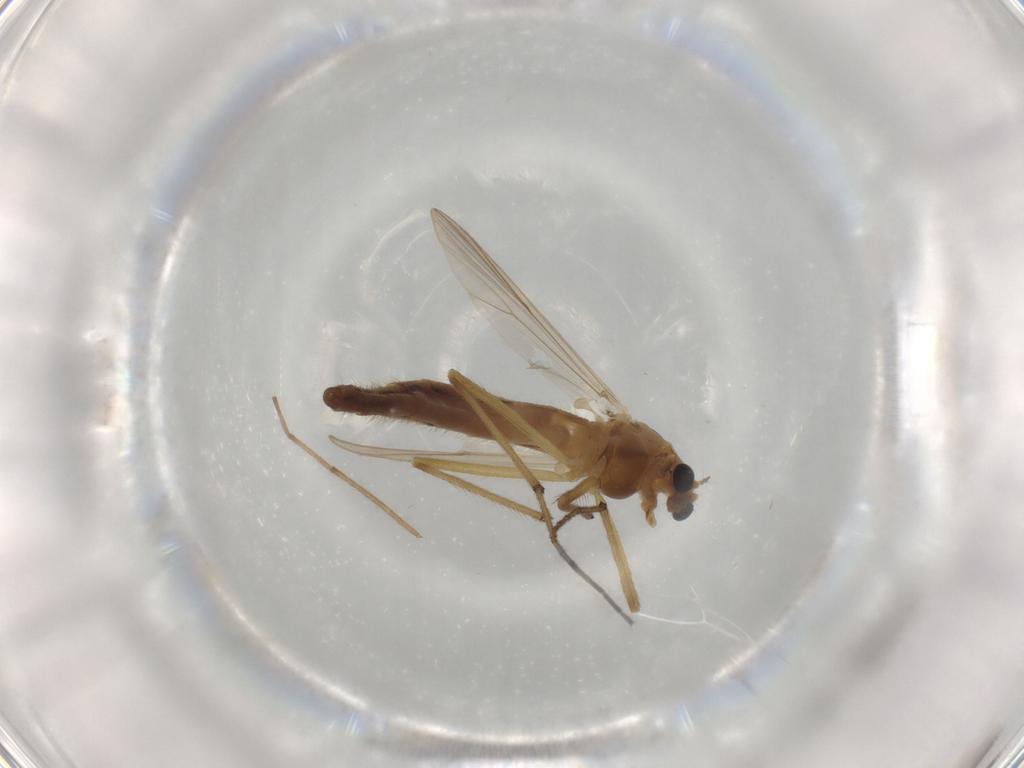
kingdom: Animalia
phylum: Arthropoda
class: Insecta
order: Diptera
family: Chironomidae
